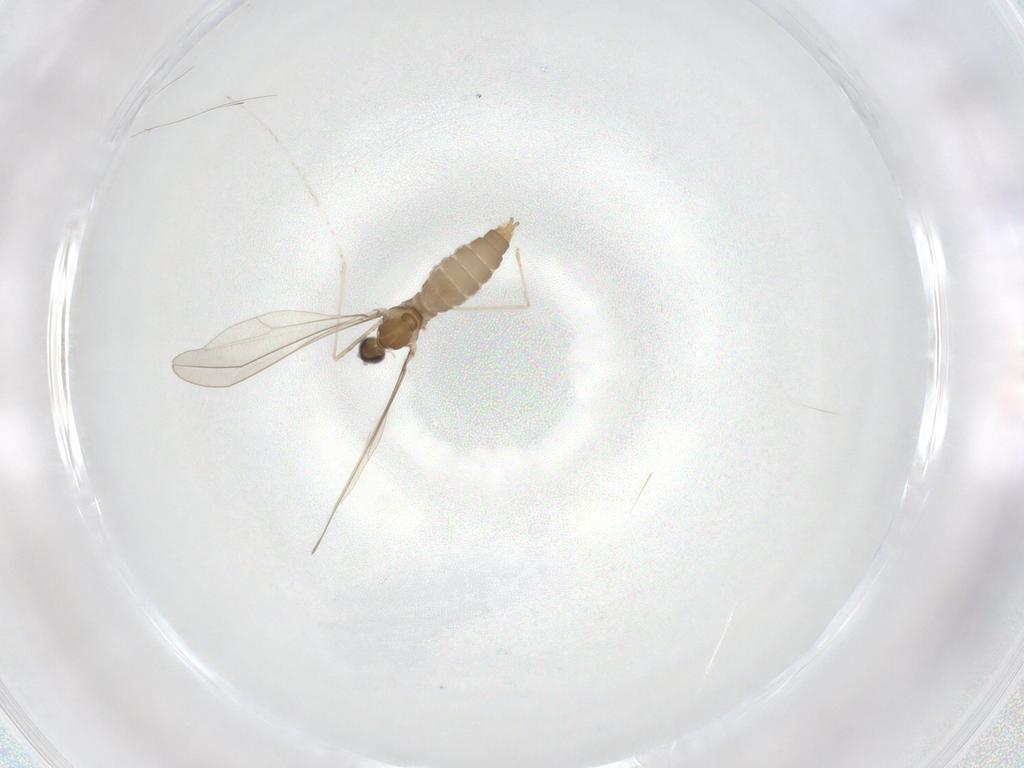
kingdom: Animalia
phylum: Arthropoda
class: Insecta
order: Diptera
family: Cecidomyiidae
